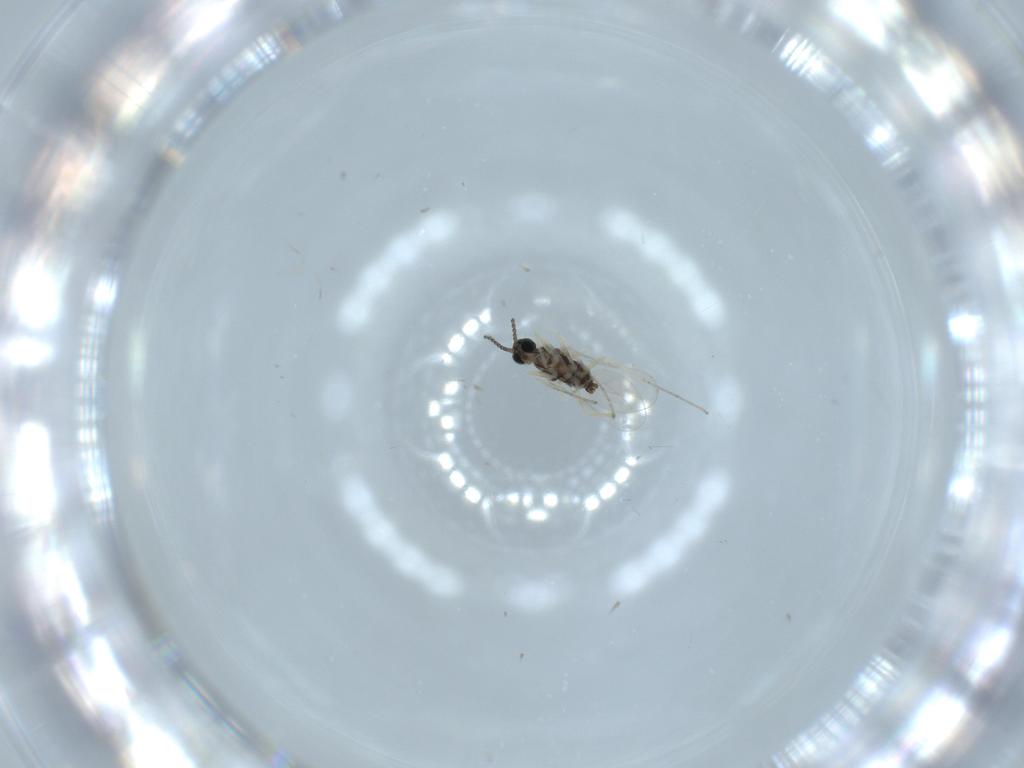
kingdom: Animalia
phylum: Arthropoda
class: Insecta
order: Diptera
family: Cecidomyiidae
